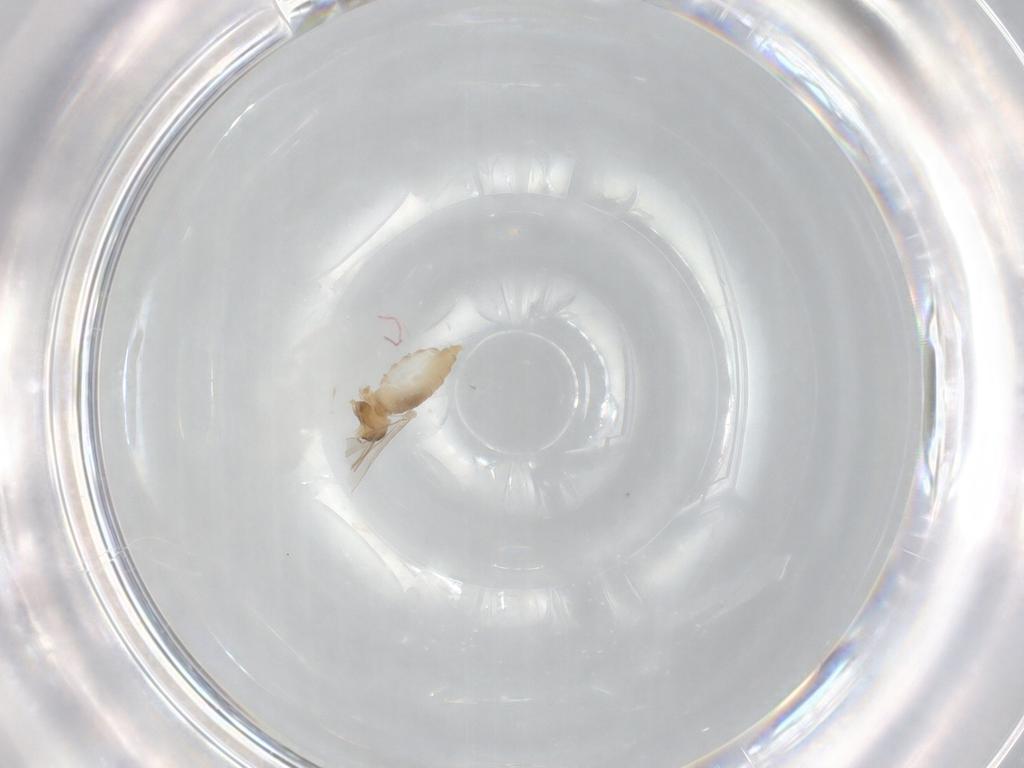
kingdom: Animalia
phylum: Arthropoda
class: Insecta
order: Diptera
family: Cecidomyiidae
